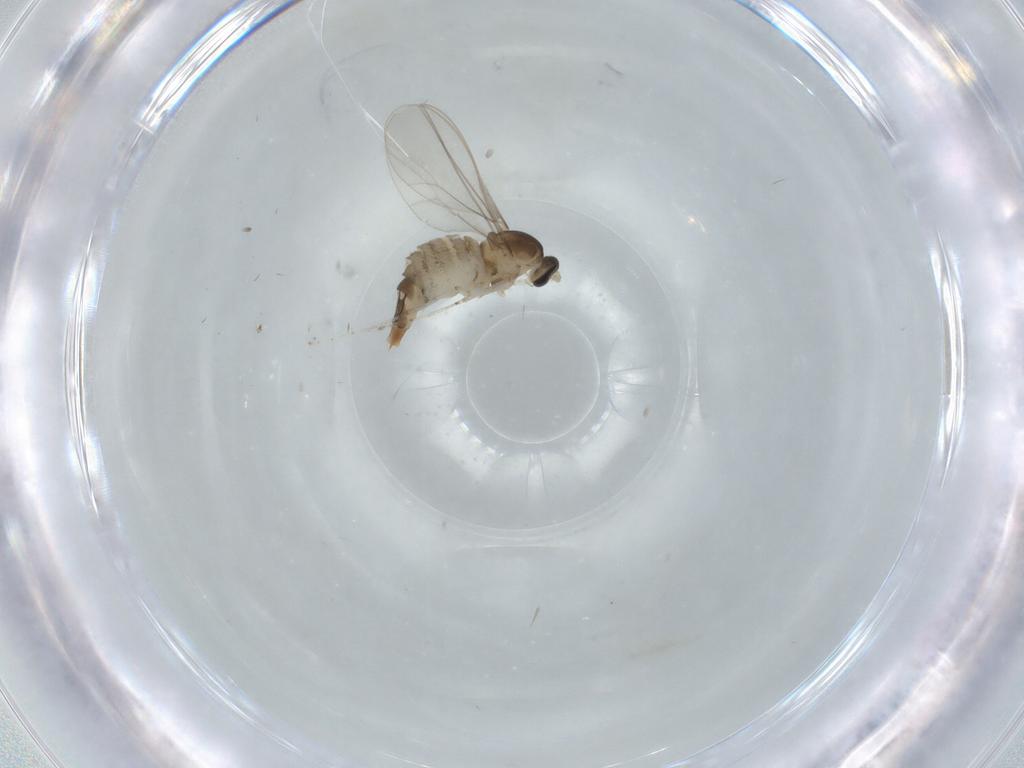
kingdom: Animalia
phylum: Arthropoda
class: Insecta
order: Diptera
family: Cecidomyiidae
